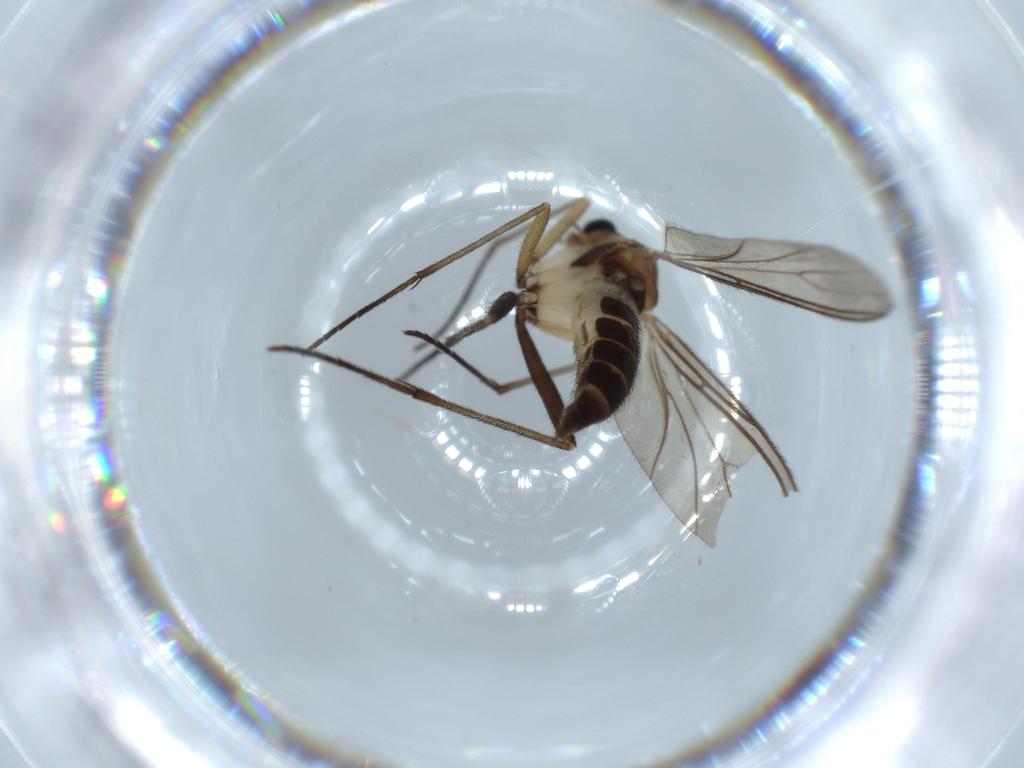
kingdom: Animalia
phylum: Arthropoda
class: Insecta
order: Diptera
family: Sciaridae
